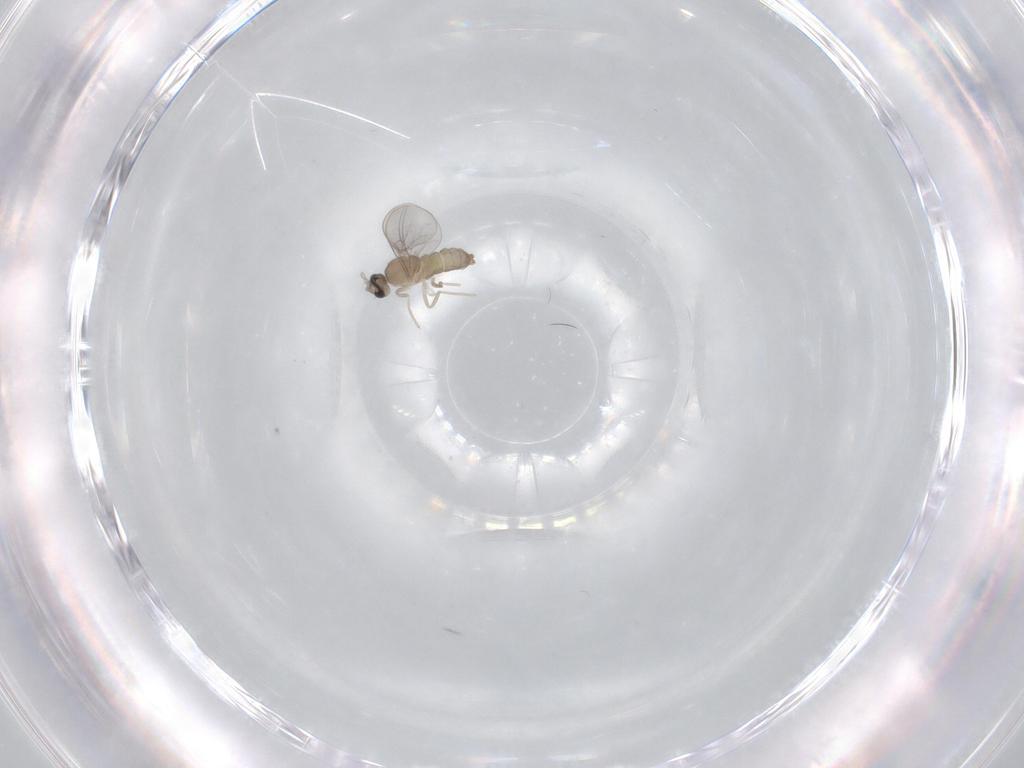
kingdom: Animalia
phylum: Arthropoda
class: Insecta
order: Diptera
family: Cecidomyiidae
